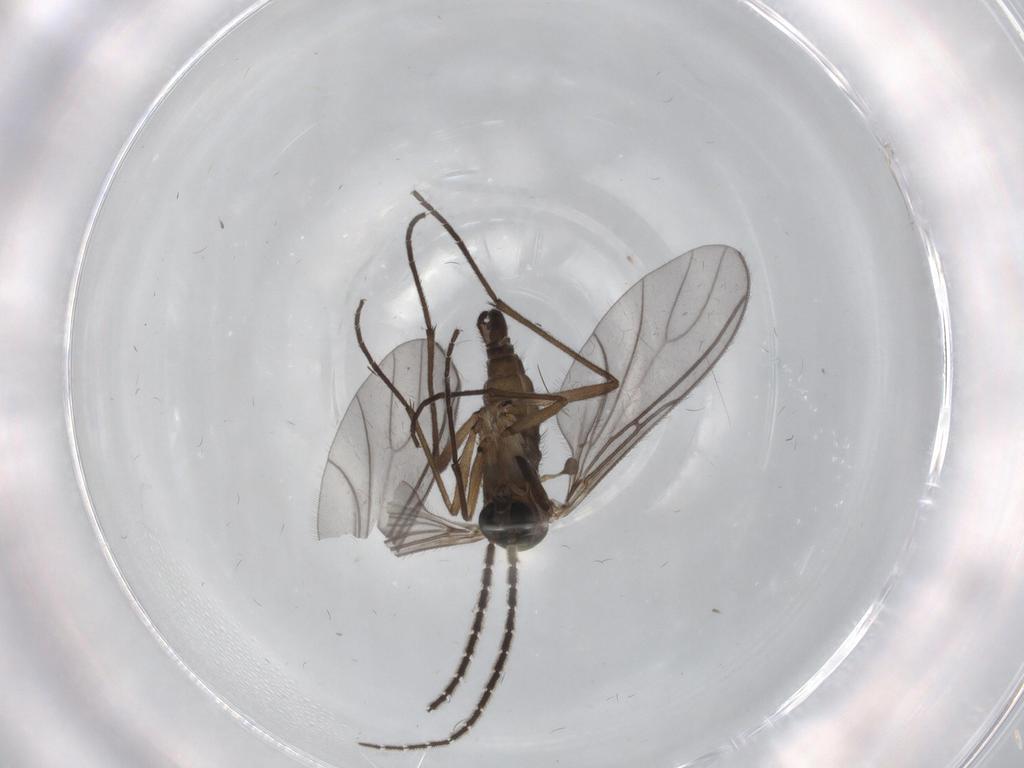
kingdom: Animalia
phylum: Arthropoda
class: Insecta
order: Diptera
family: Sciaridae
